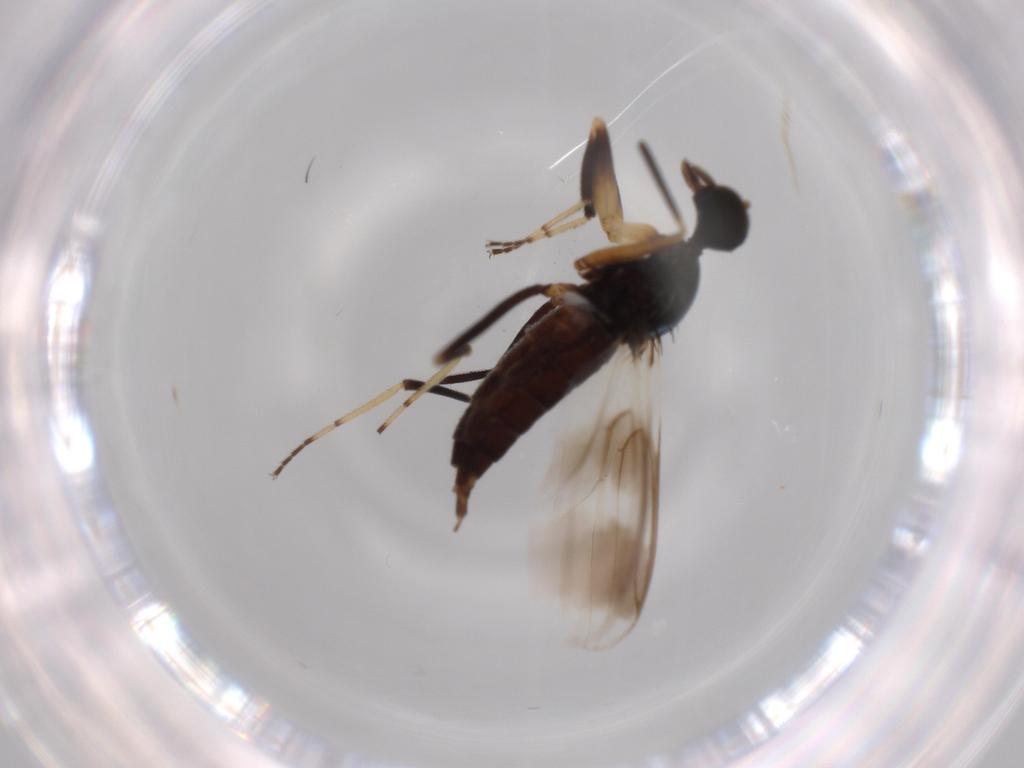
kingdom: Animalia
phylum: Arthropoda
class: Insecta
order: Diptera
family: Hybotidae
